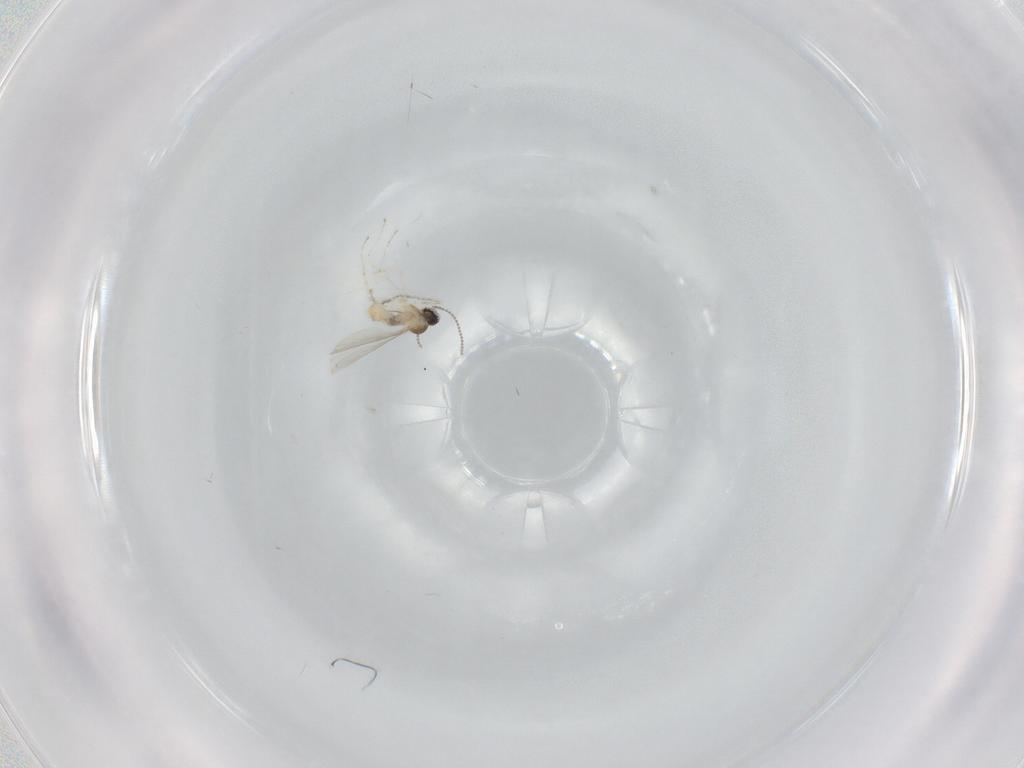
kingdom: Animalia
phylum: Arthropoda
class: Insecta
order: Diptera
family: Cecidomyiidae
